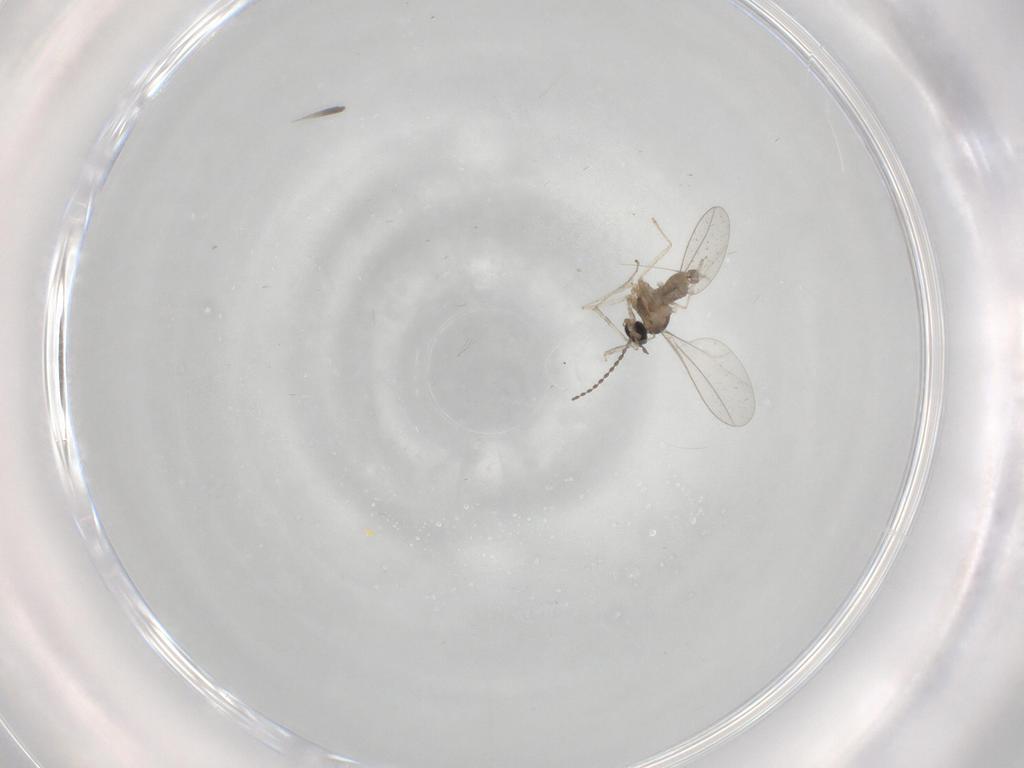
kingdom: Animalia
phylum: Arthropoda
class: Insecta
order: Diptera
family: Cecidomyiidae
